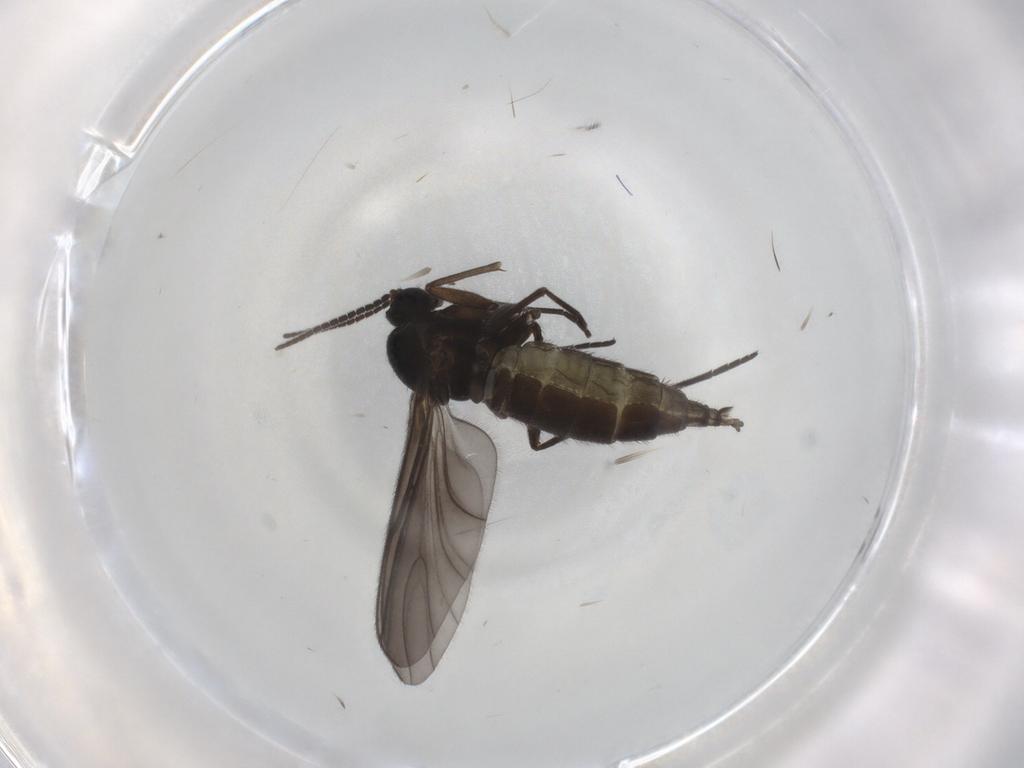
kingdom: Animalia
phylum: Arthropoda
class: Insecta
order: Diptera
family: Sciaridae
